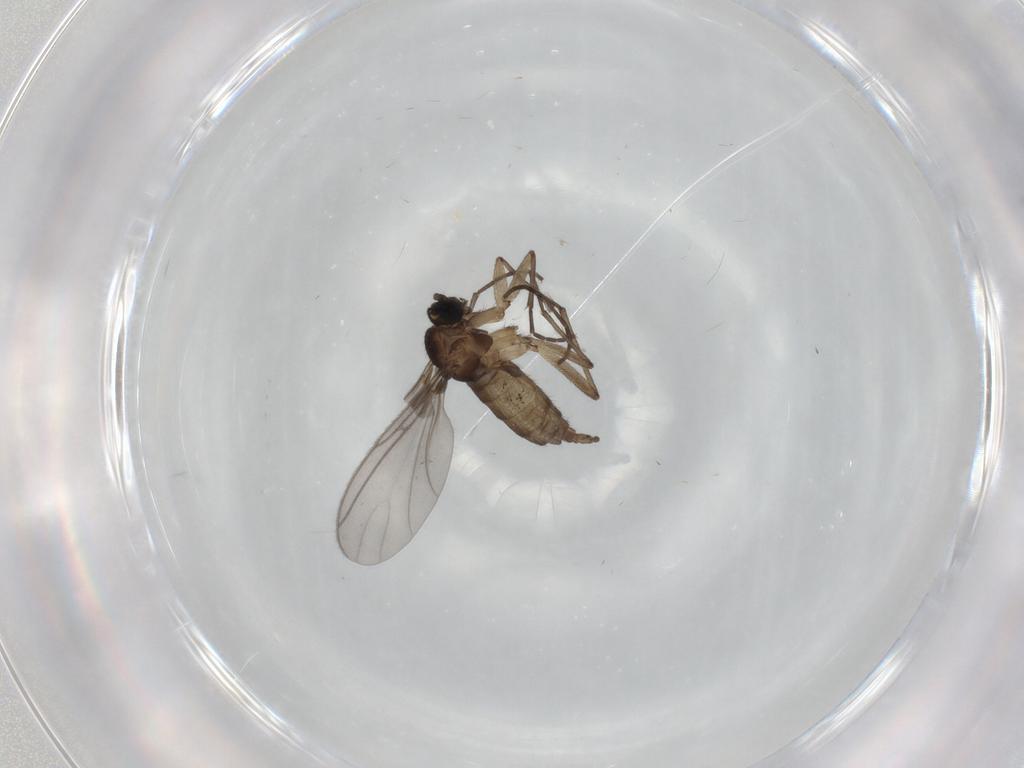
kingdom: Animalia
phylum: Arthropoda
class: Insecta
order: Diptera
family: Sciaridae
